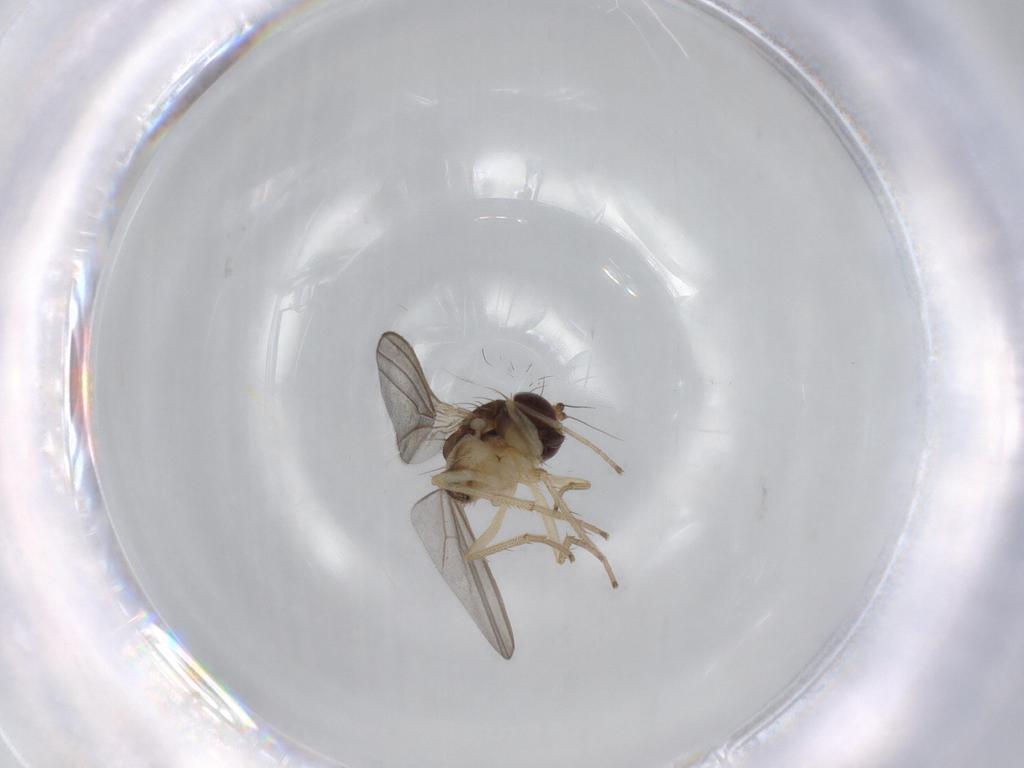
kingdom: Animalia
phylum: Arthropoda
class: Insecta
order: Diptera
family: Dolichopodidae
